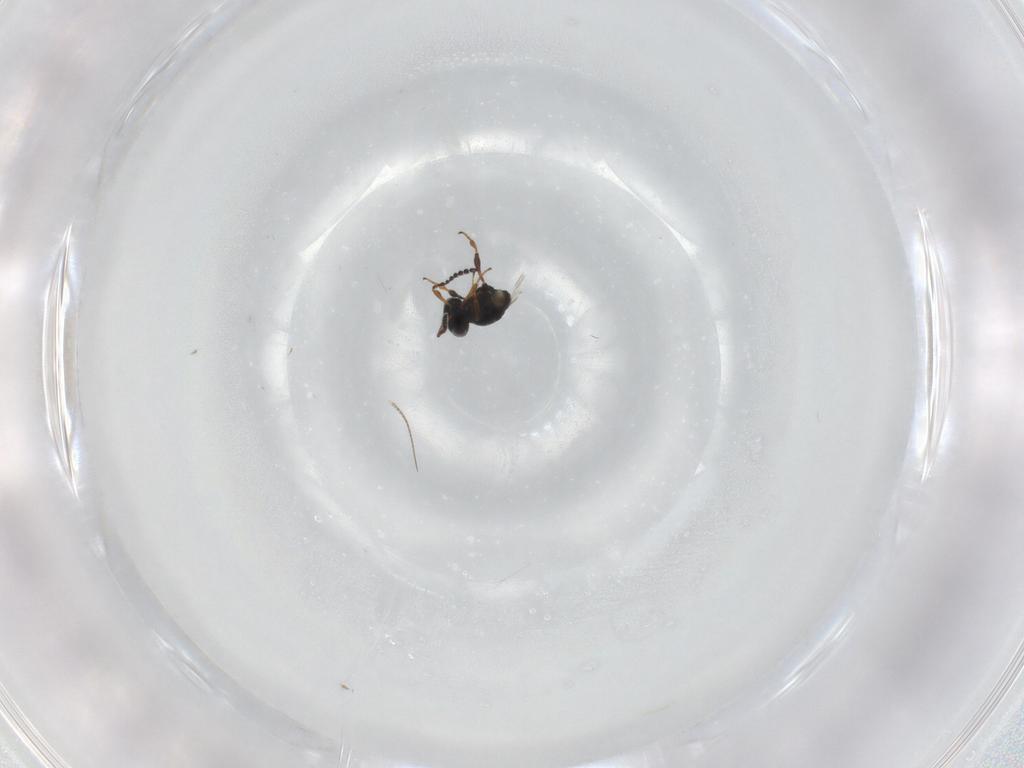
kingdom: Animalia
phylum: Arthropoda
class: Insecta
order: Hymenoptera
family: Platygastridae
